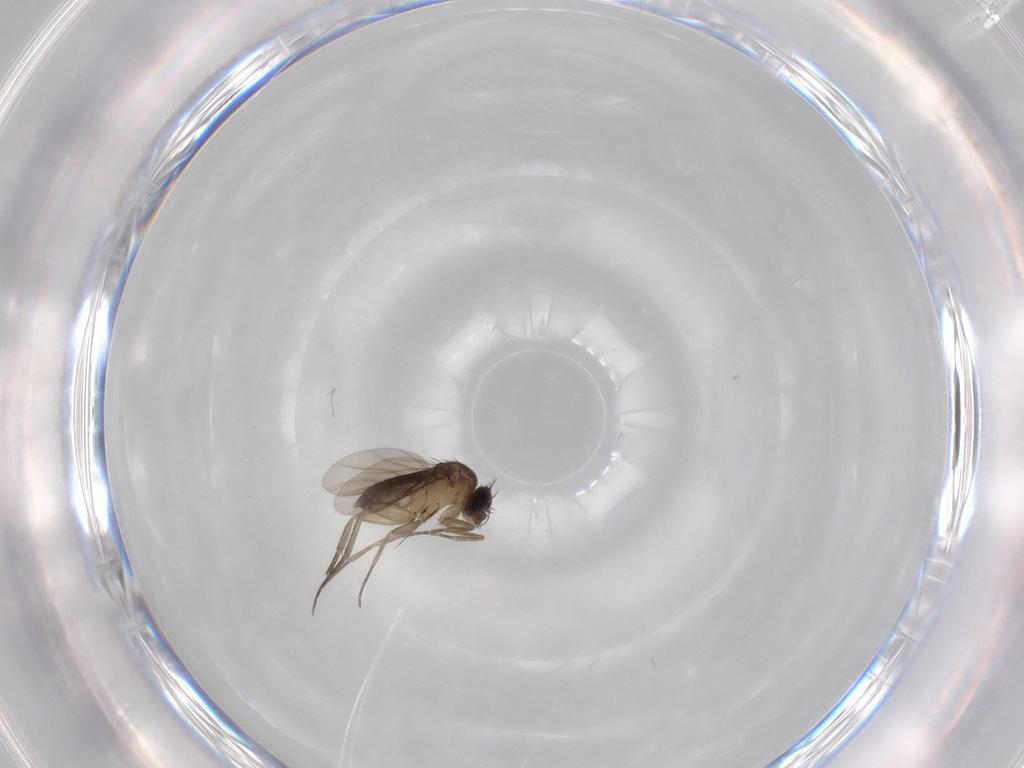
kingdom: Animalia
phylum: Arthropoda
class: Insecta
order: Diptera
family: Phoridae
